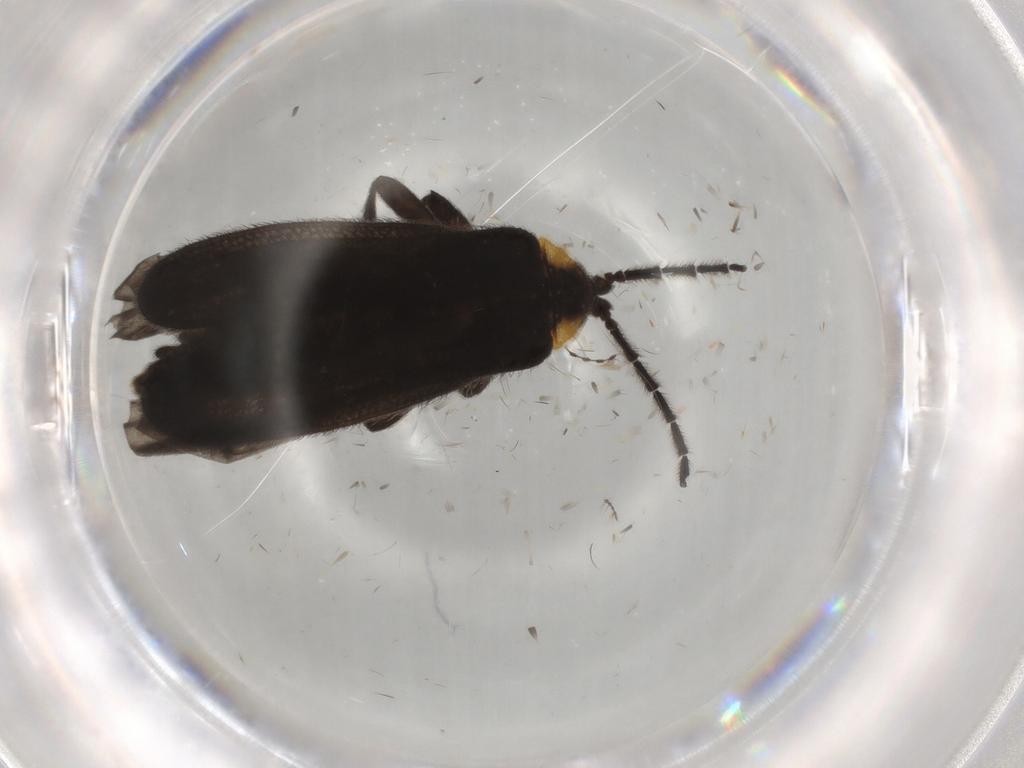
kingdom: Animalia
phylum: Arthropoda
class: Insecta
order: Coleoptera
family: Lycidae
